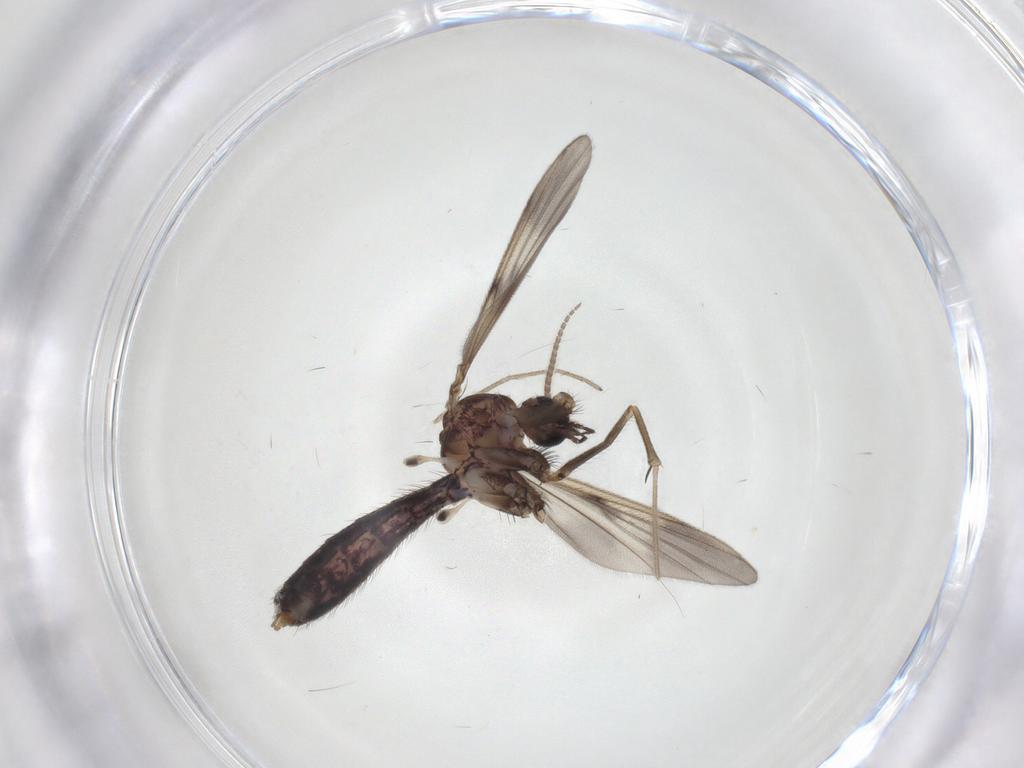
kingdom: Animalia
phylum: Arthropoda
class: Insecta
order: Diptera
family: Mycetophilidae
